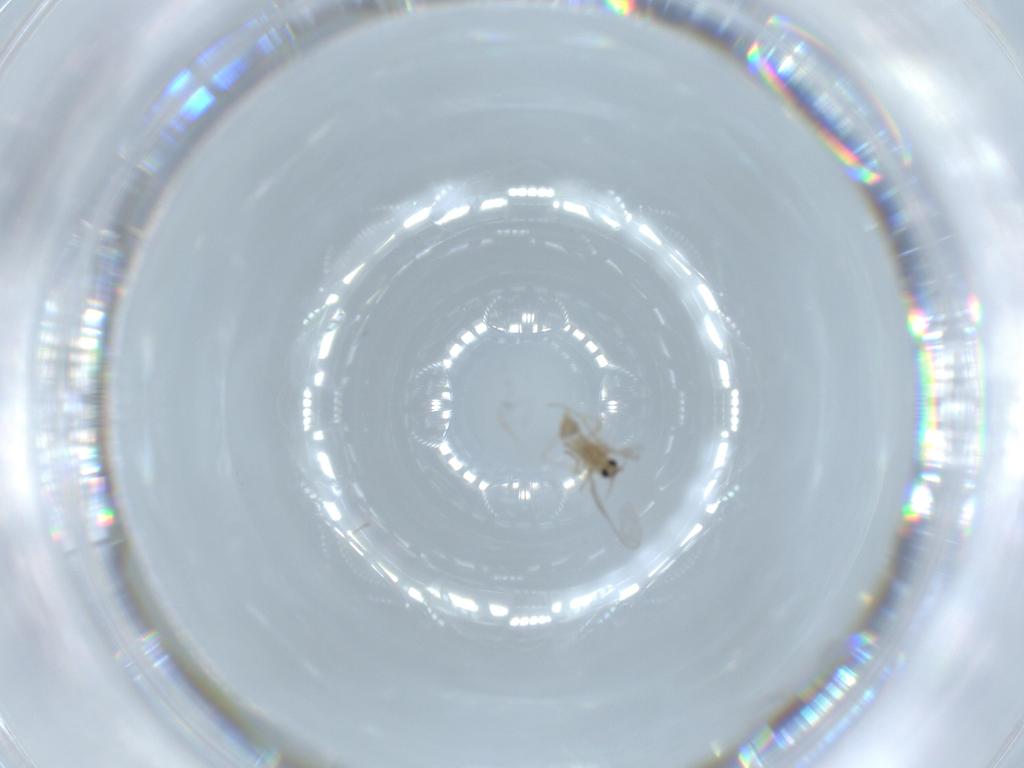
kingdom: Animalia
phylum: Arthropoda
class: Insecta
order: Diptera
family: Cecidomyiidae
